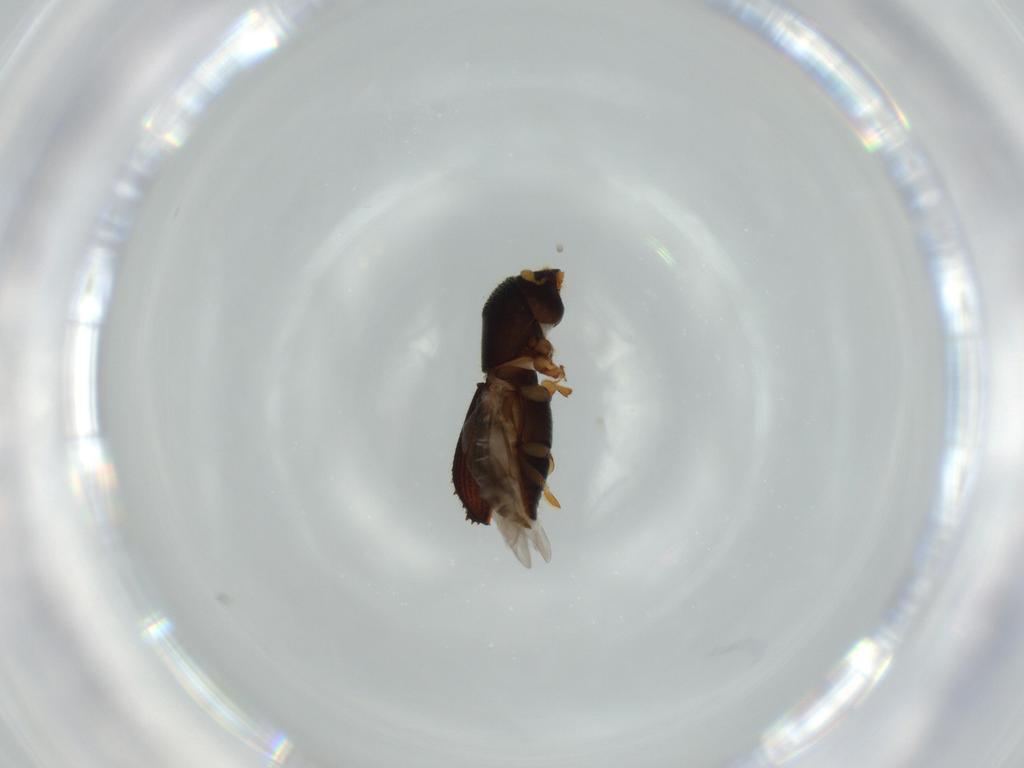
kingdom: Animalia
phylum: Arthropoda
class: Insecta
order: Coleoptera
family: Curculionidae
